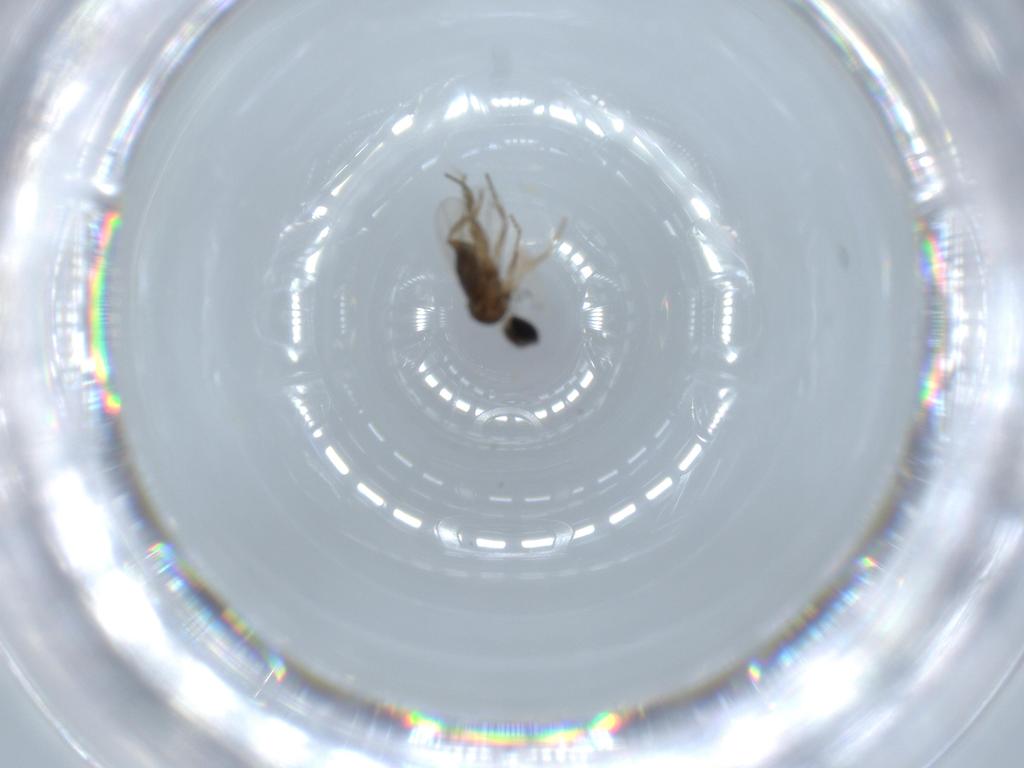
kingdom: Animalia
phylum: Arthropoda
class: Insecta
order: Diptera
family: Phoridae
